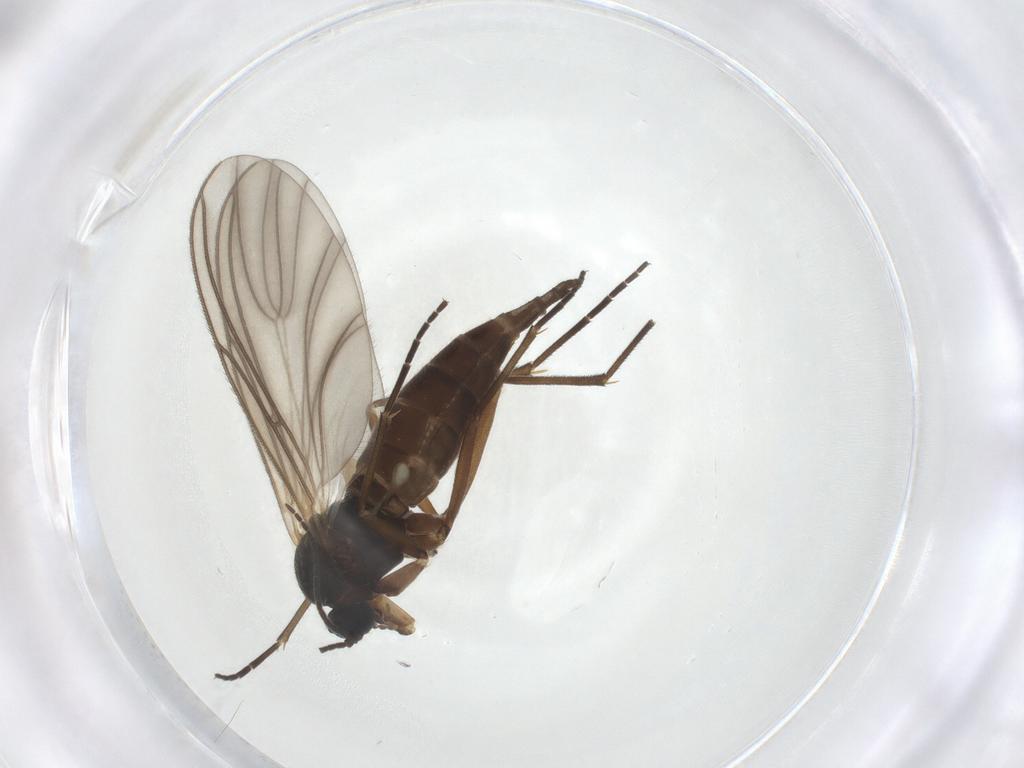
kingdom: Animalia
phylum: Arthropoda
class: Insecta
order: Diptera
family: Sciaridae
